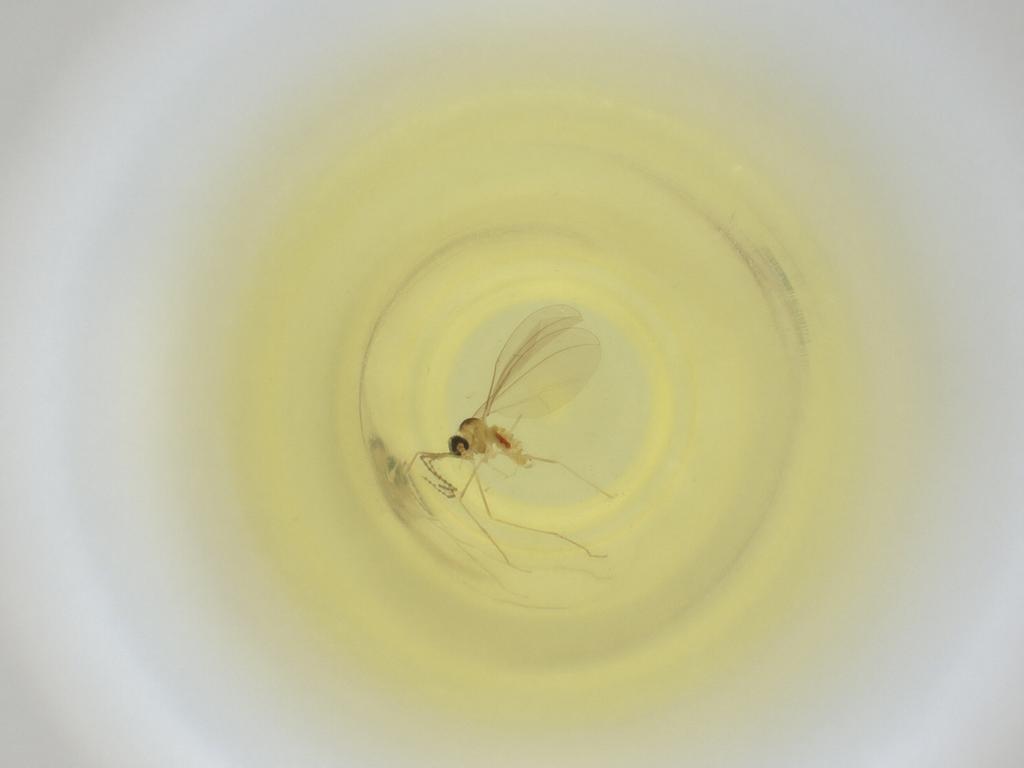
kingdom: Animalia
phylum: Arthropoda
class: Insecta
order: Diptera
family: Cecidomyiidae
